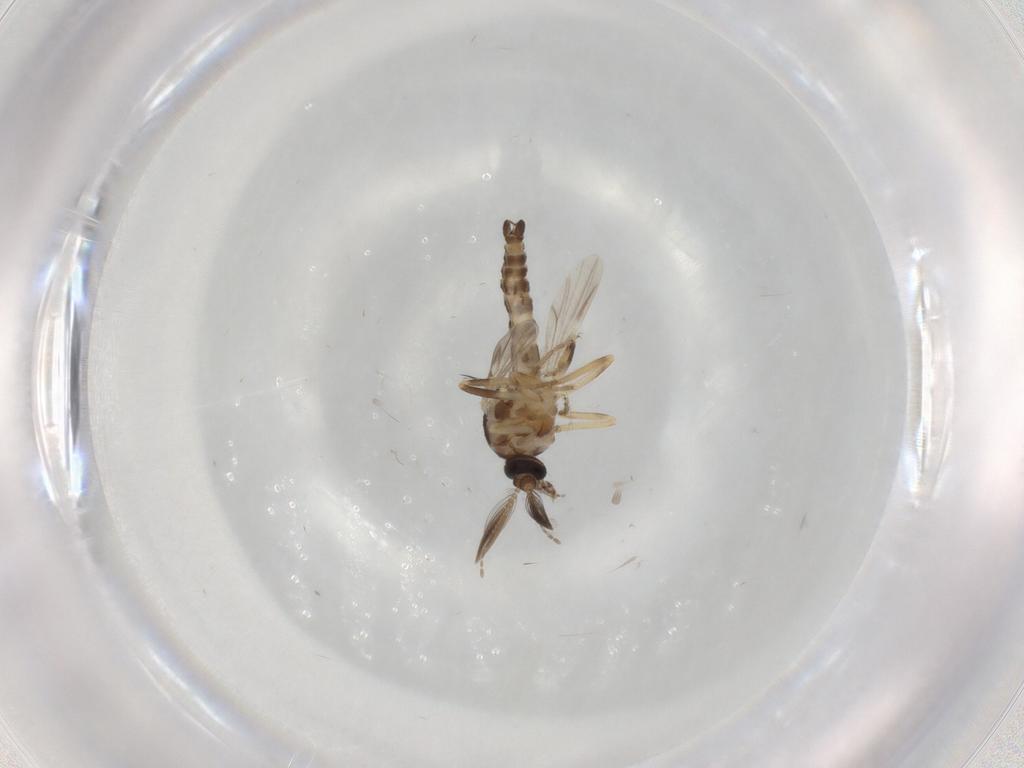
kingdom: Animalia
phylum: Arthropoda
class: Insecta
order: Diptera
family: Ceratopogonidae
